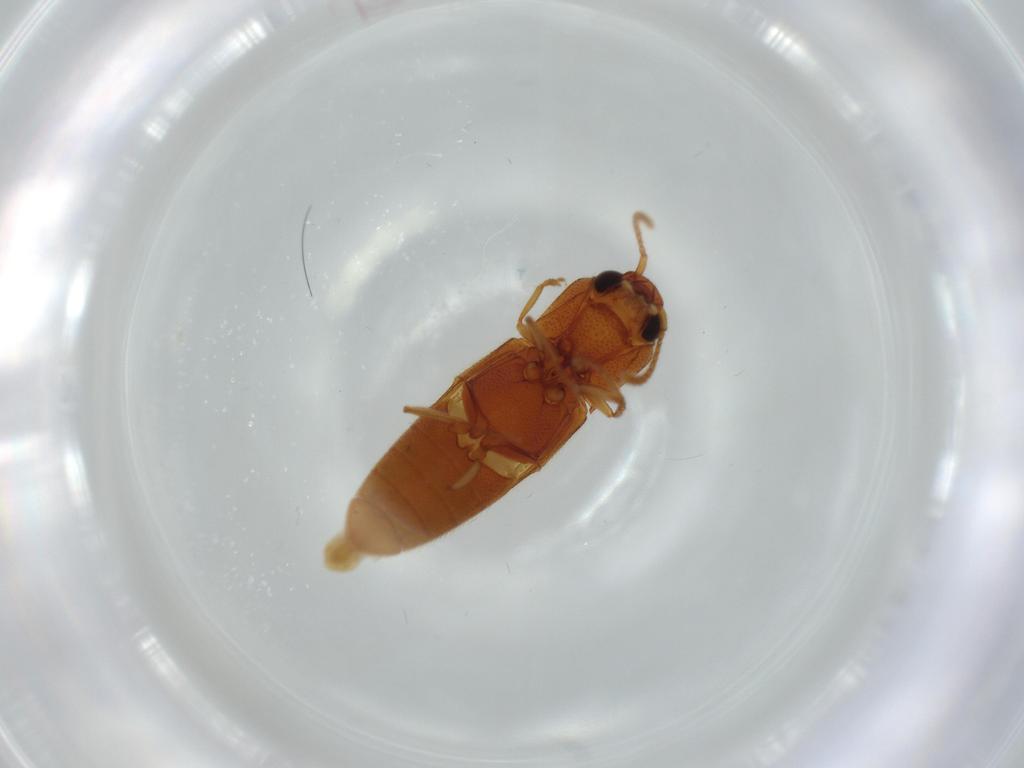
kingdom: Animalia
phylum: Arthropoda
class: Insecta
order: Coleoptera
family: Elateridae
